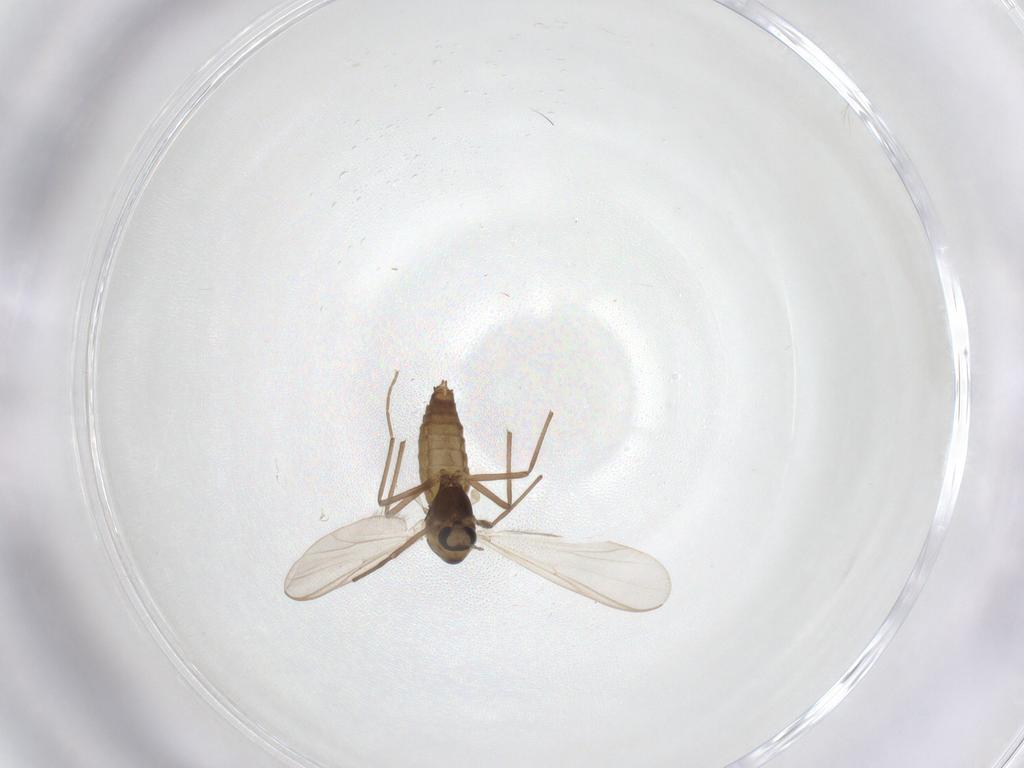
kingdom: Animalia
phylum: Arthropoda
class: Insecta
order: Diptera
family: Chironomidae
